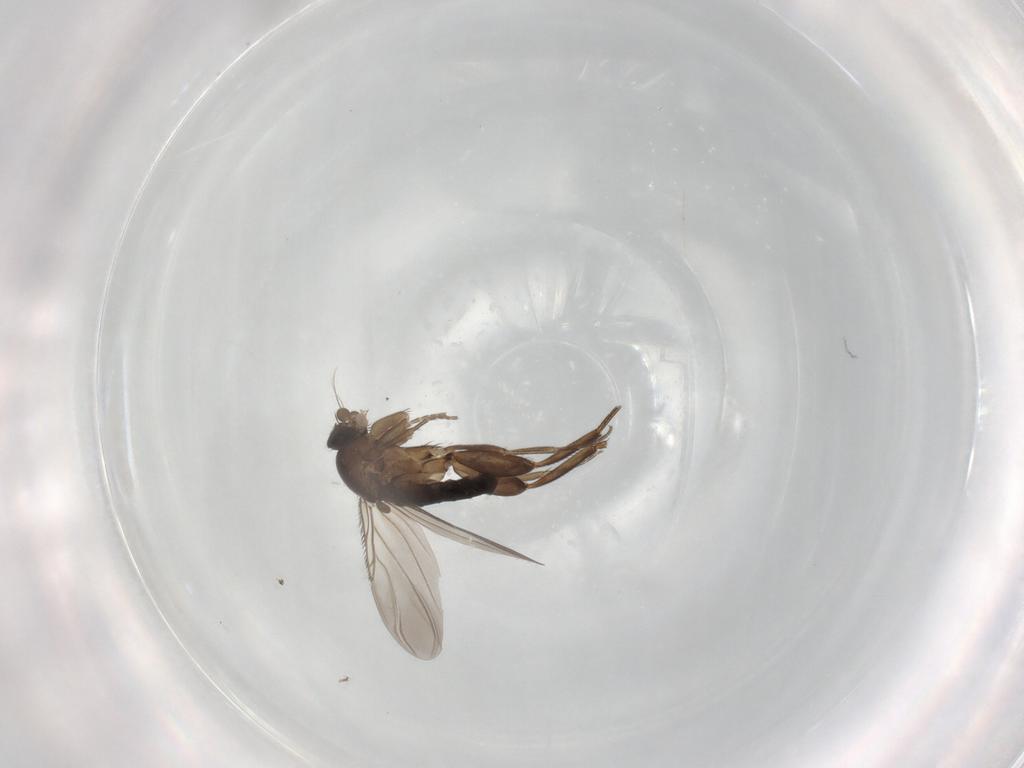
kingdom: Animalia
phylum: Arthropoda
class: Insecta
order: Diptera
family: Phoridae
